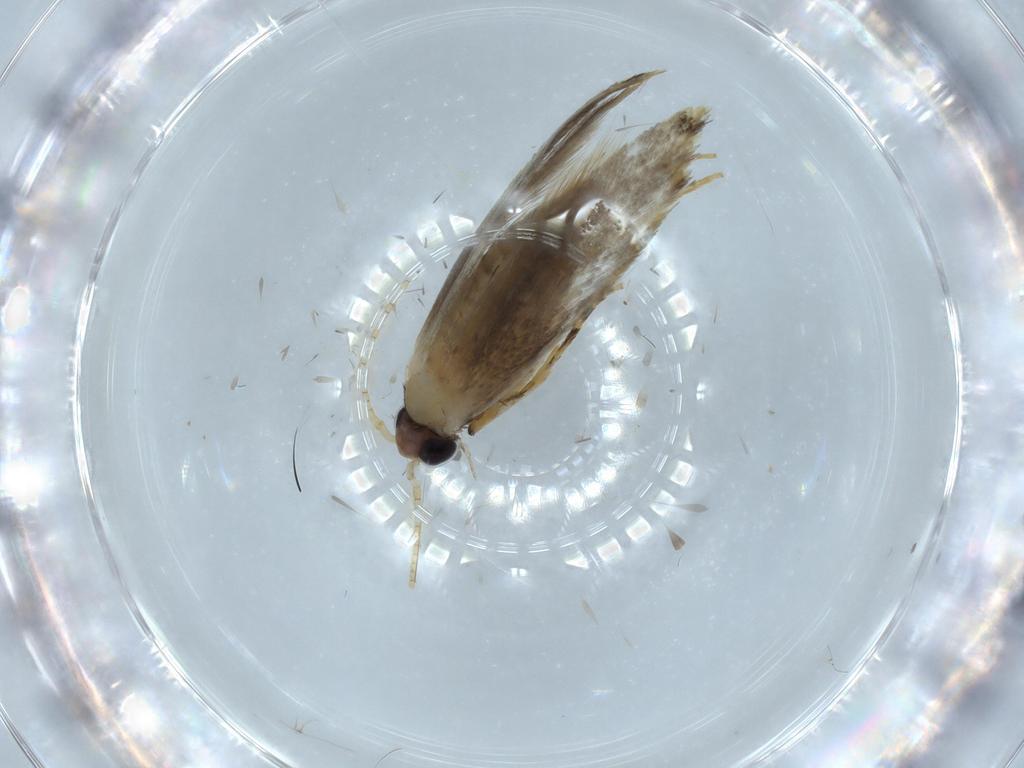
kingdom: Animalia
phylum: Arthropoda
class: Insecta
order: Lepidoptera
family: Tineidae
